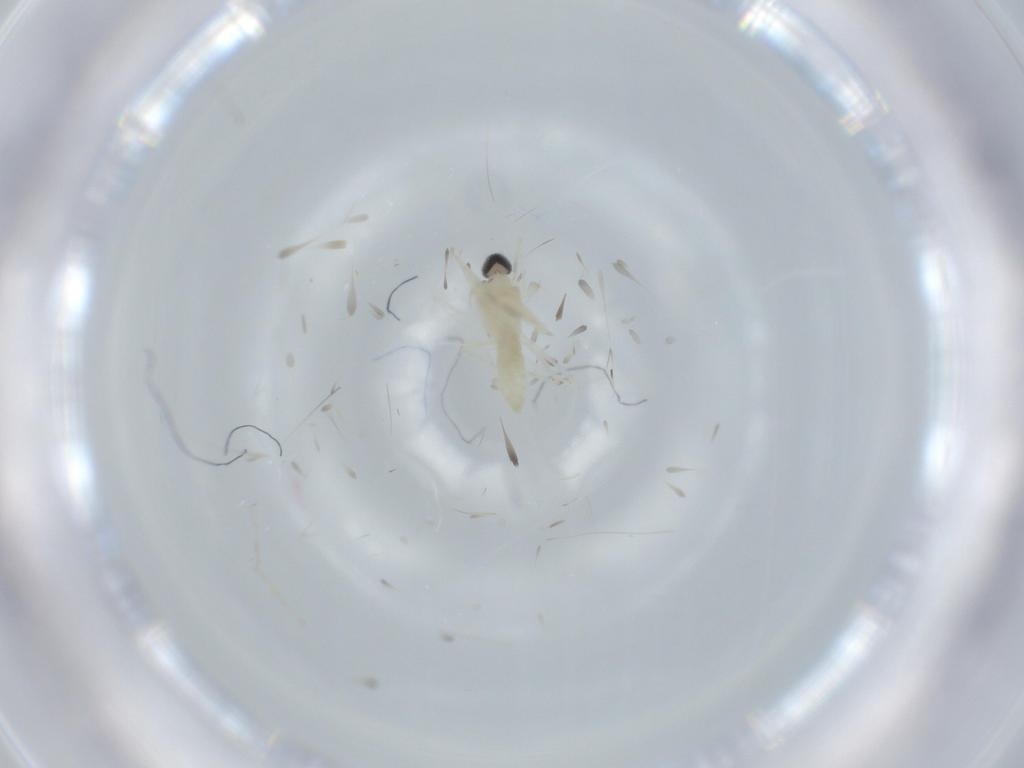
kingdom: Animalia
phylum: Arthropoda
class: Insecta
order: Diptera
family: Cecidomyiidae
